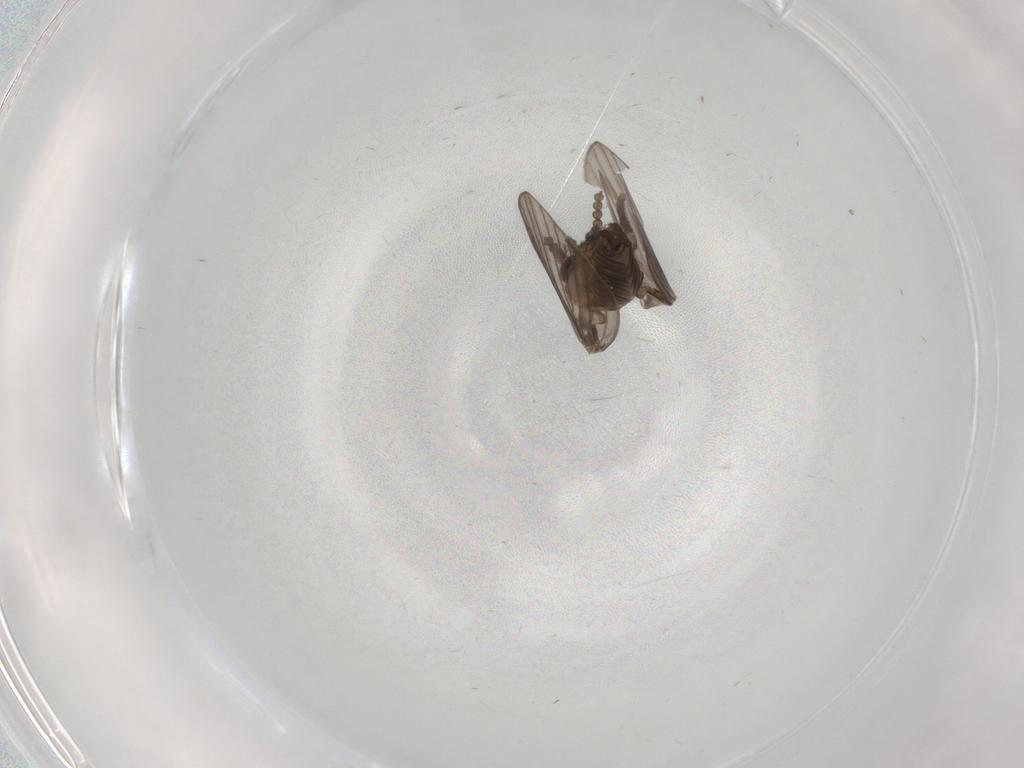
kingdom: Animalia
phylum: Arthropoda
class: Insecta
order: Diptera
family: Psychodidae
